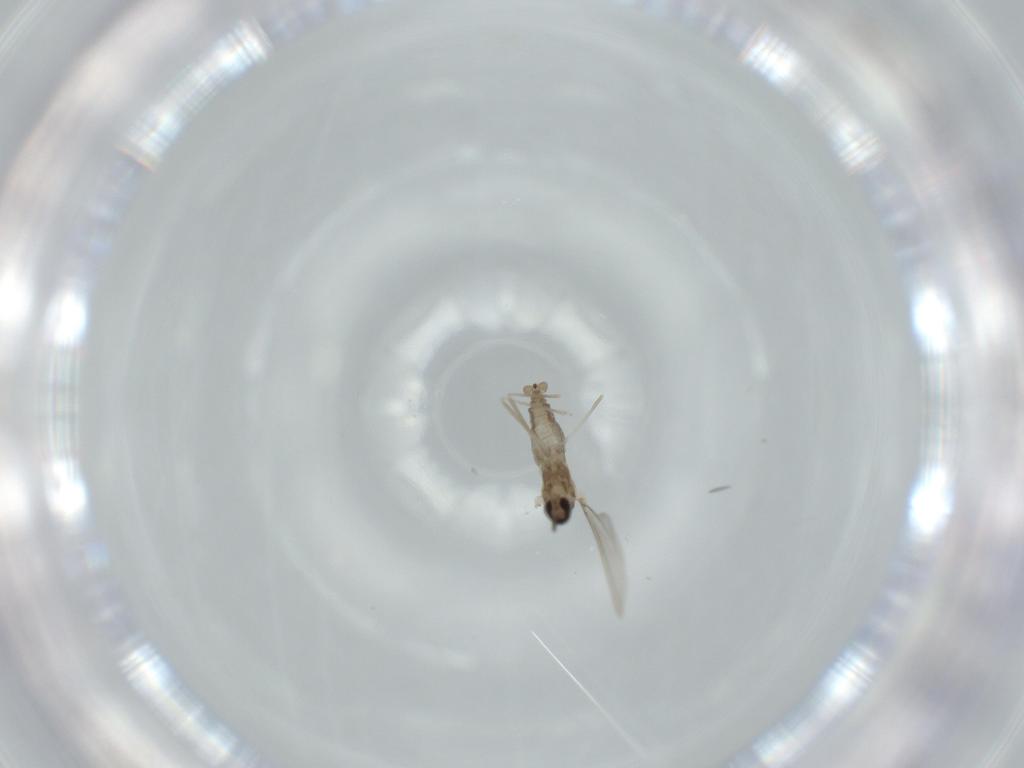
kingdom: Animalia
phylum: Arthropoda
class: Insecta
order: Diptera
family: Cecidomyiidae
